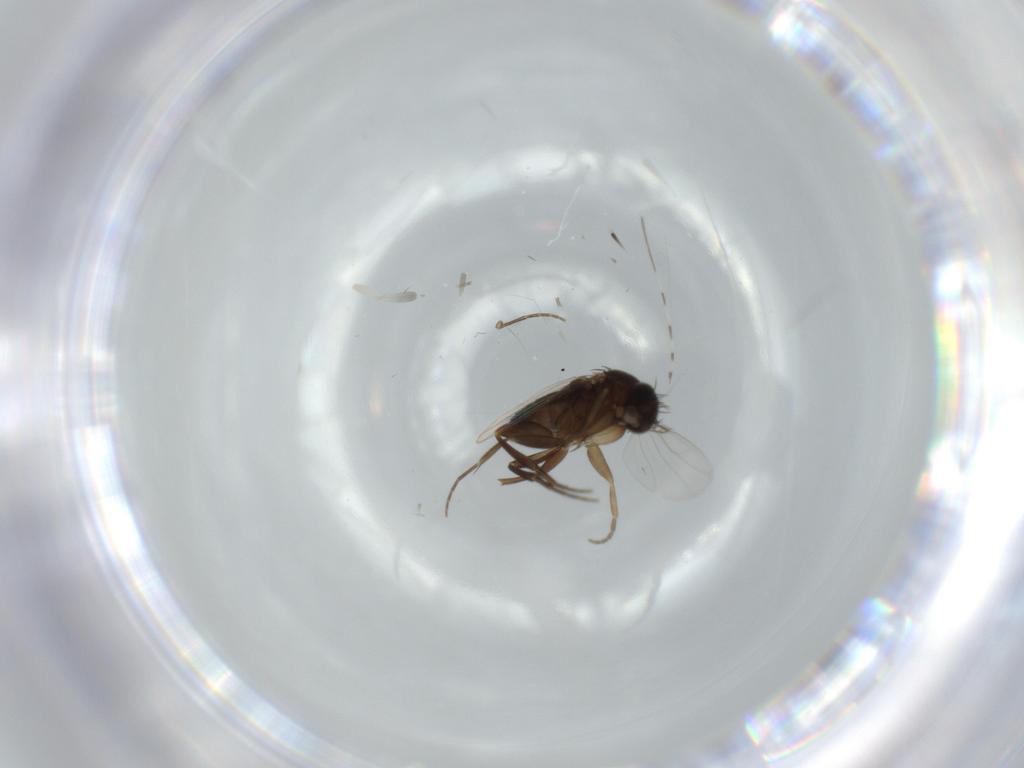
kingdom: Animalia
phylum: Arthropoda
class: Insecta
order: Diptera
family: Phoridae
